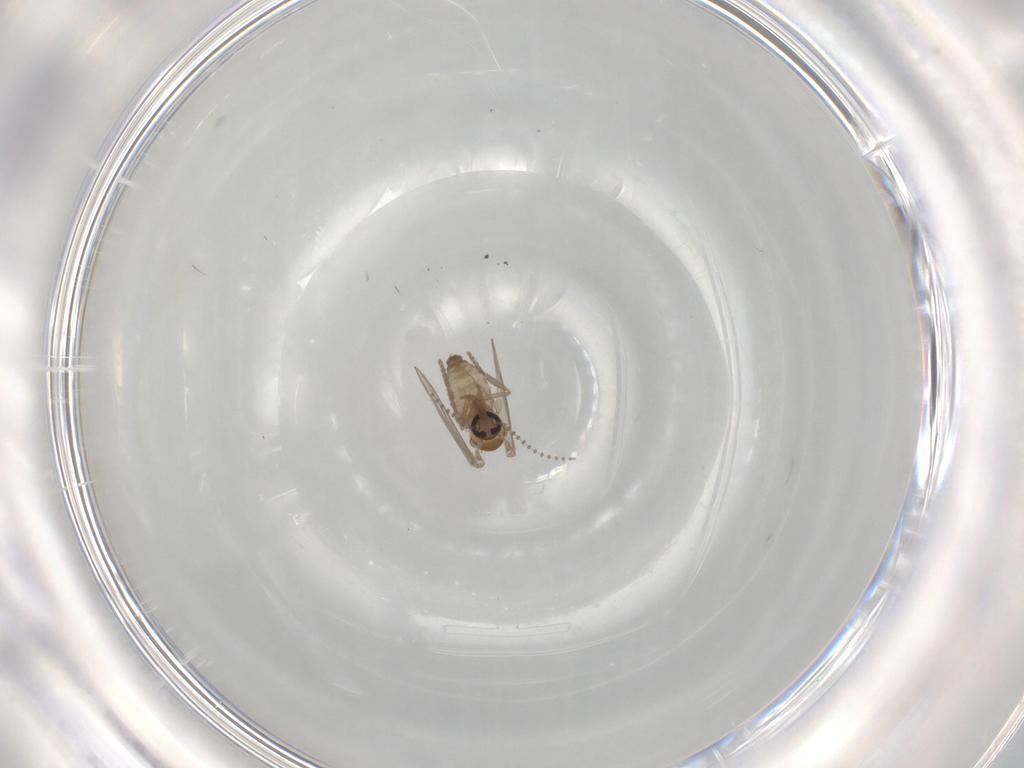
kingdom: Animalia
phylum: Arthropoda
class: Insecta
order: Diptera
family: Psychodidae
